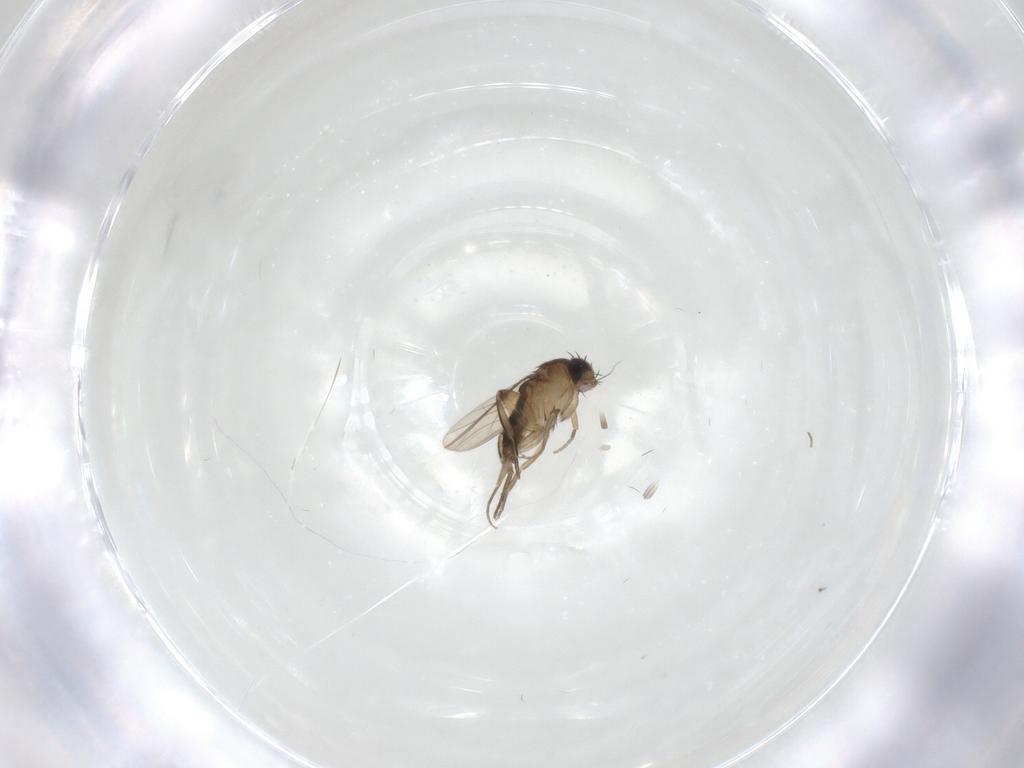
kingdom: Animalia
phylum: Arthropoda
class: Insecta
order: Diptera
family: Phoridae
